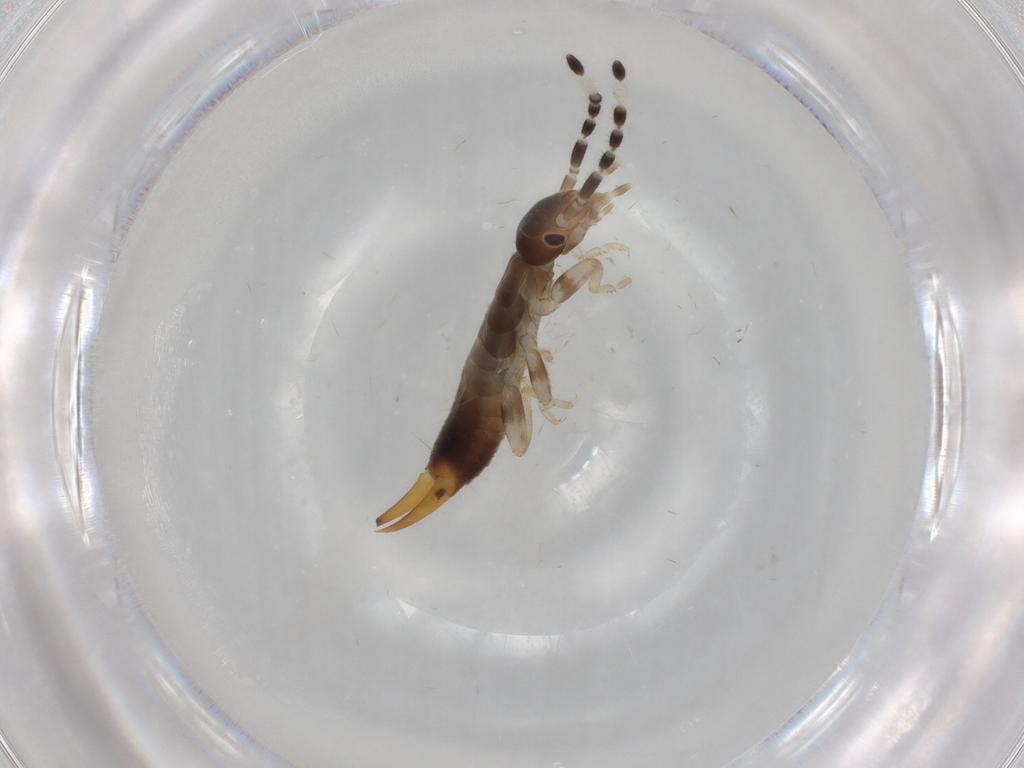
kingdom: Animalia
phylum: Arthropoda
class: Insecta
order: Dermaptera
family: Anisolabididae
